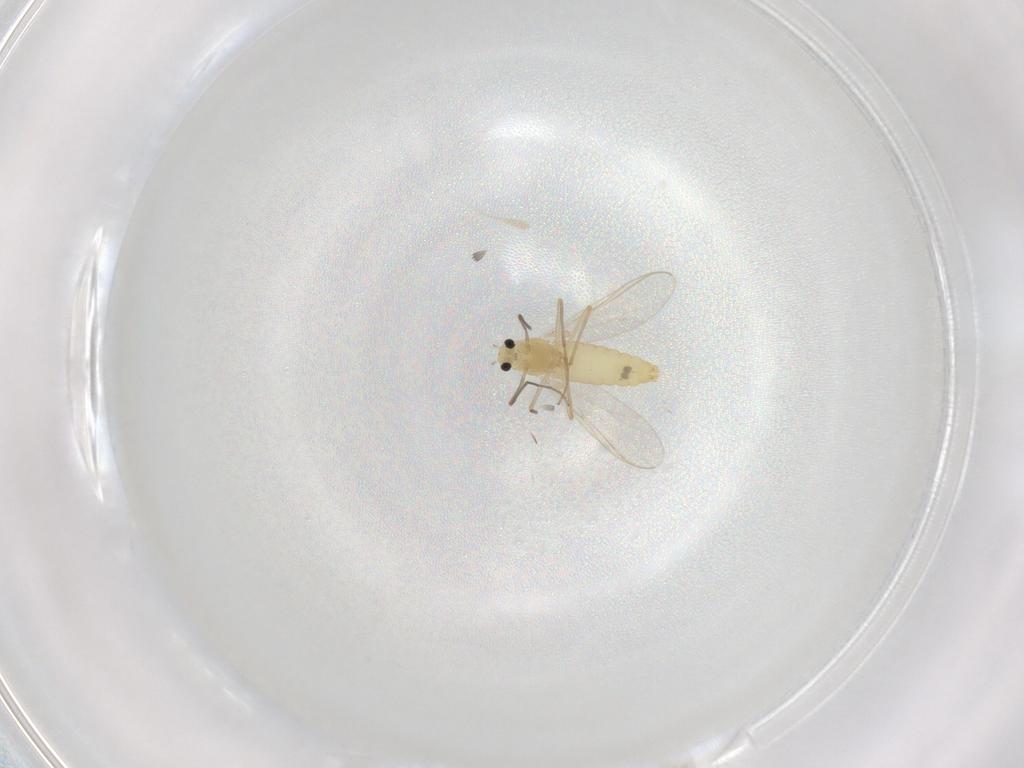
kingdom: Animalia
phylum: Arthropoda
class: Insecta
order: Diptera
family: Chironomidae
